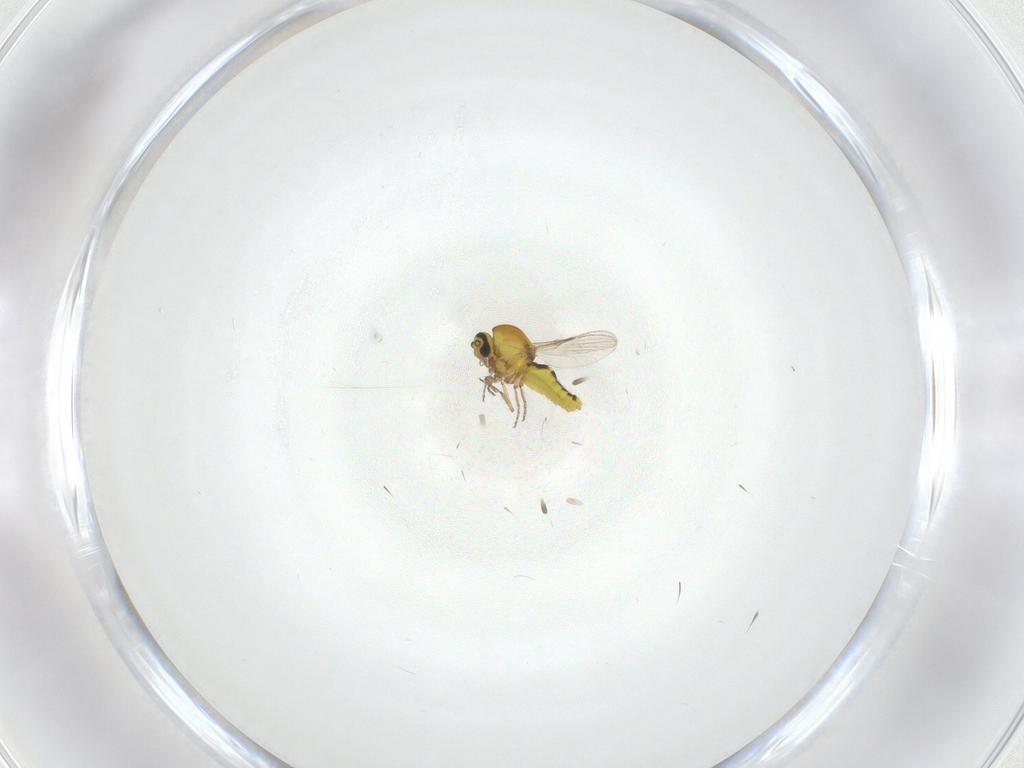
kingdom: Animalia
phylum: Arthropoda
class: Insecta
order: Diptera
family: Ceratopogonidae
